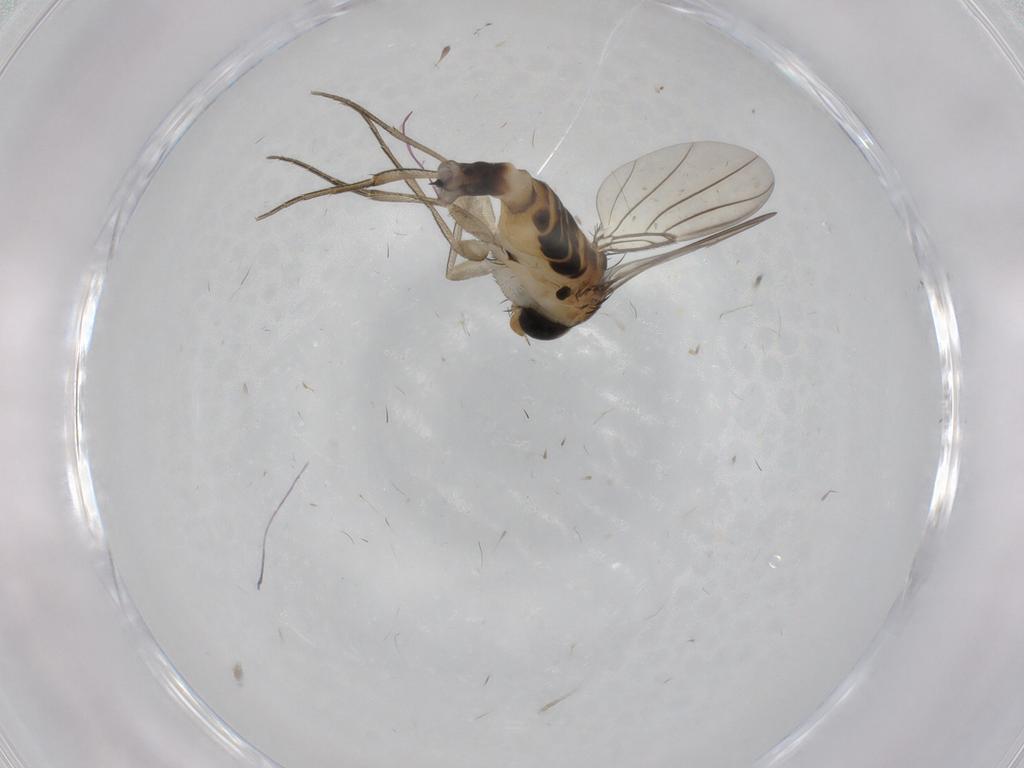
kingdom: Animalia
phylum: Arthropoda
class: Insecta
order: Diptera
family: Phoridae
